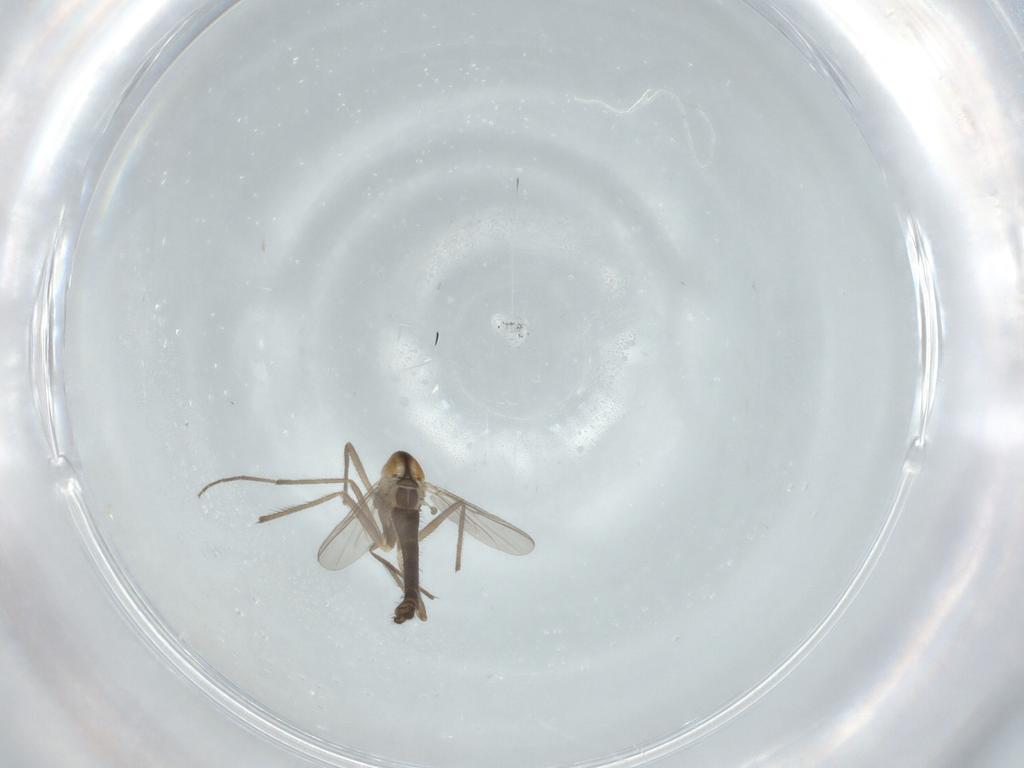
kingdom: Animalia
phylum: Arthropoda
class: Insecta
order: Diptera
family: Chironomidae
